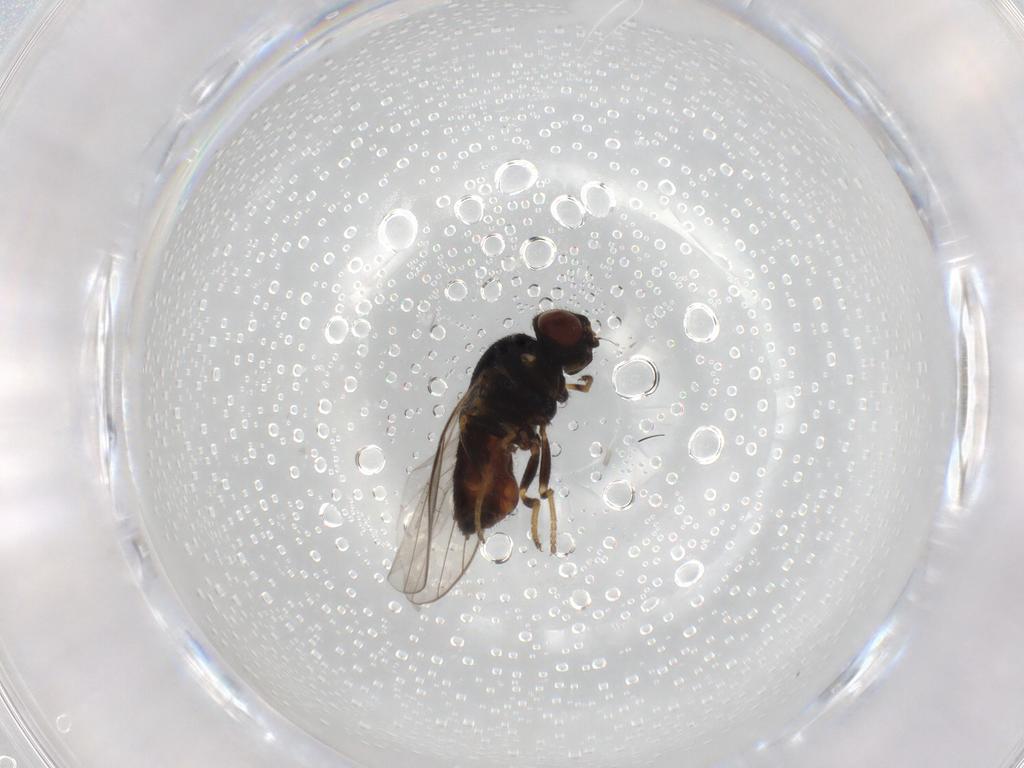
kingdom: Animalia
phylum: Arthropoda
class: Insecta
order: Diptera
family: Chloropidae
